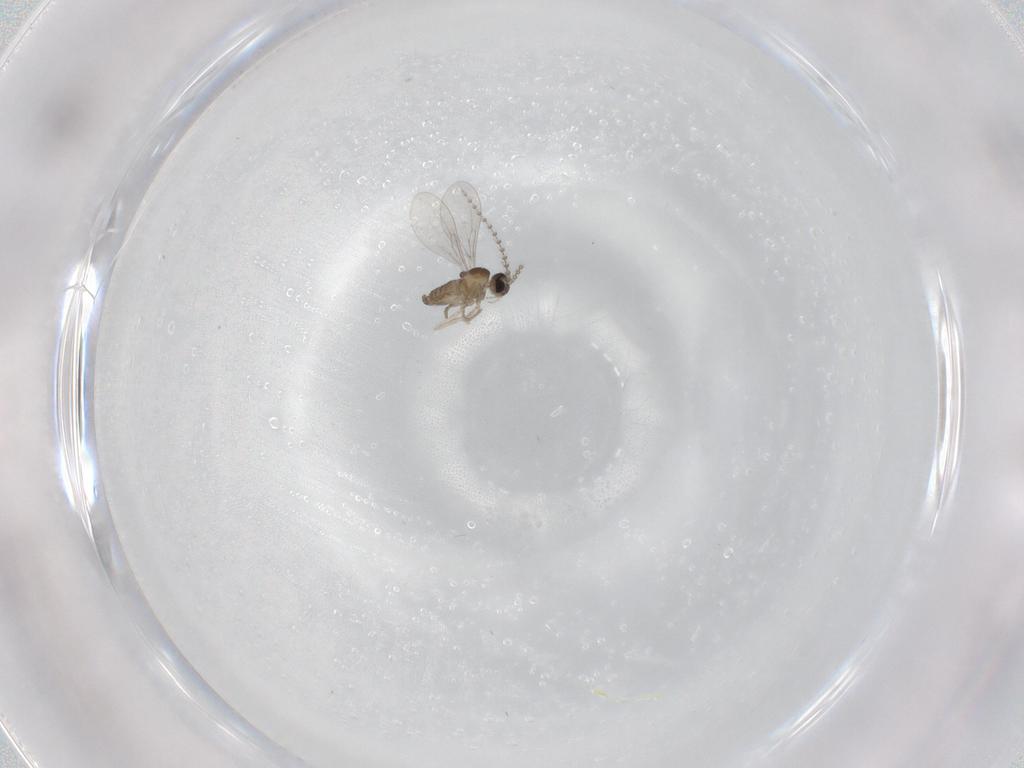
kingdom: Animalia
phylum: Arthropoda
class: Insecta
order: Diptera
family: Cecidomyiidae
